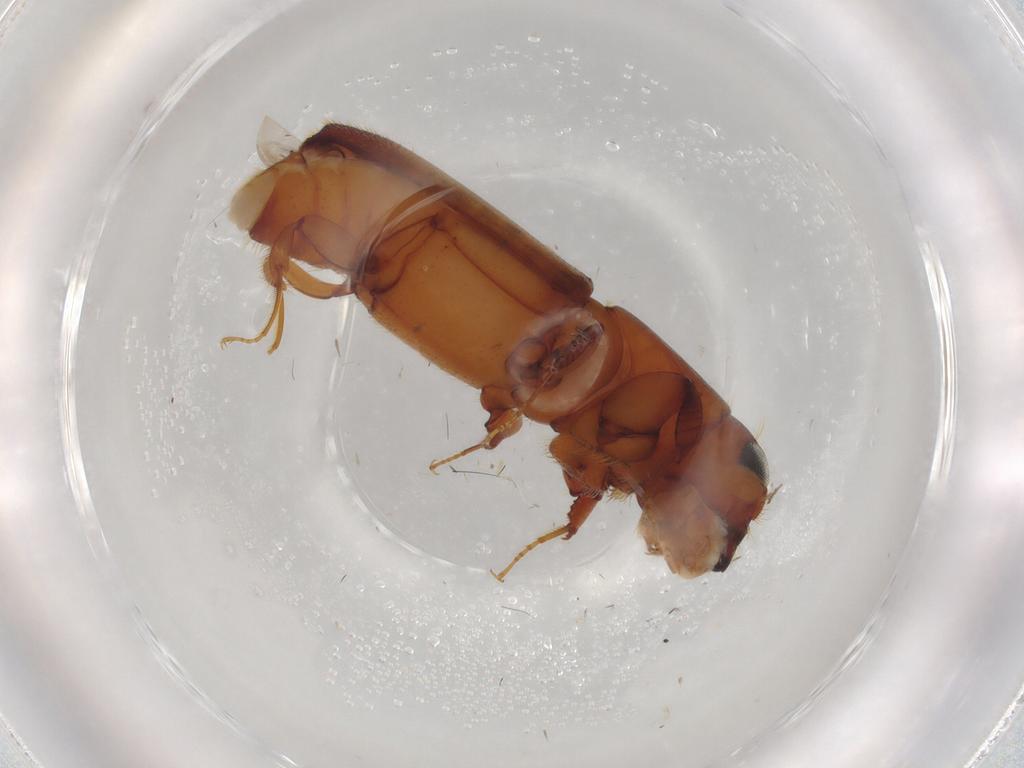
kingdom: Animalia
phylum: Arthropoda
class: Insecta
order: Coleoptera
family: Curculionidae
